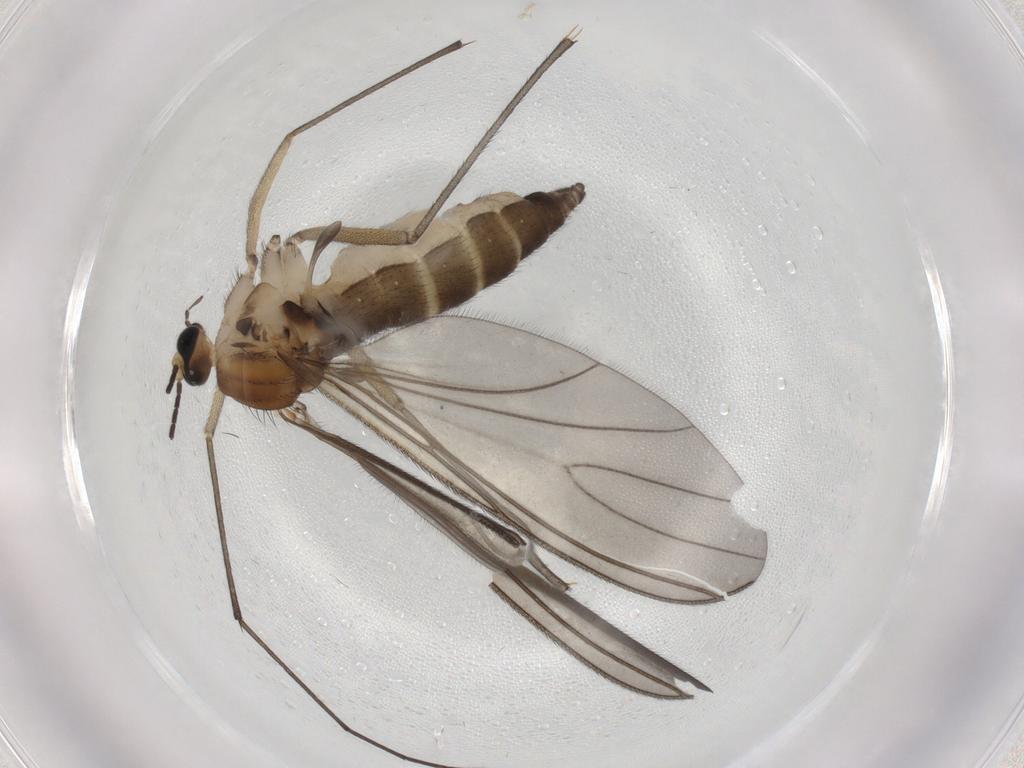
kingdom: Animalia
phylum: Arthropoda
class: Insecta
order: Diptera
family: Sciaridae
